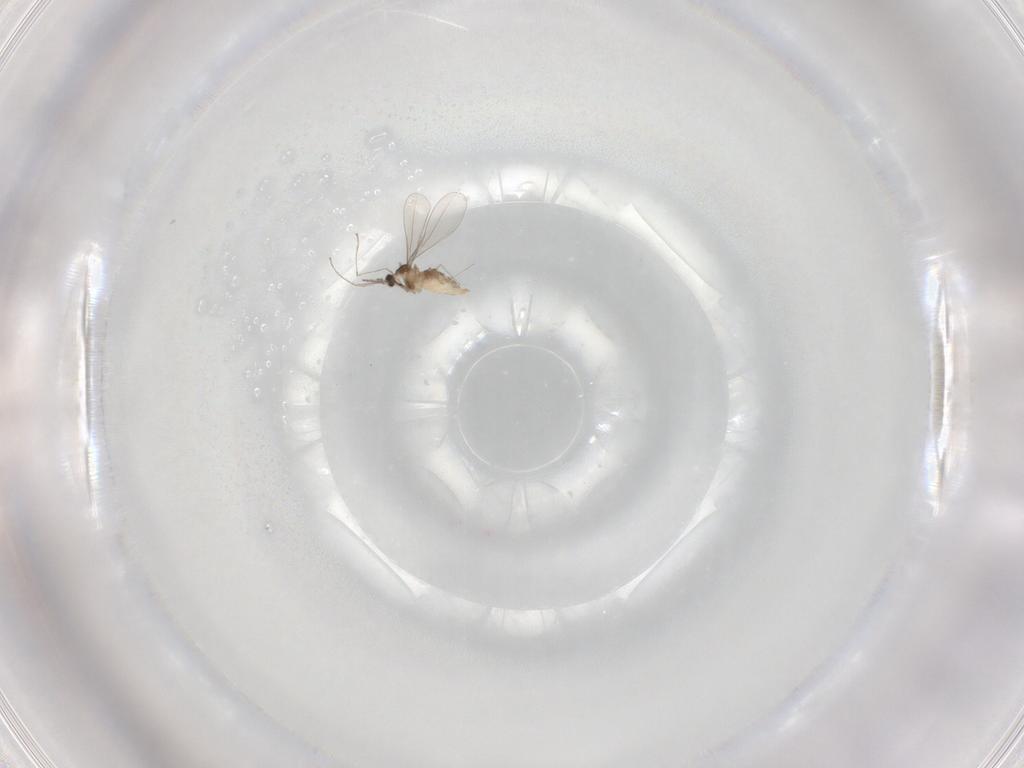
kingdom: Animalia
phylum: Arthropoda
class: Insecta
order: Diptera
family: Cecidomyiidae
